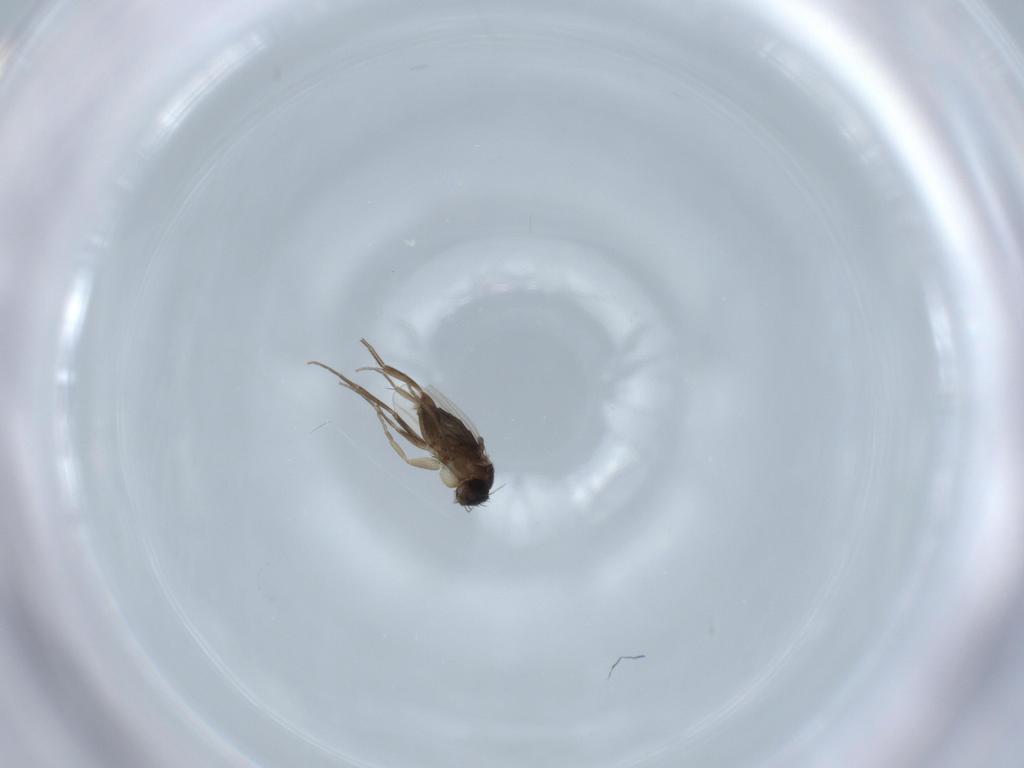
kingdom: Animalia
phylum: Arthropoda
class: Insecta
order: Diptera
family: Phoridae
